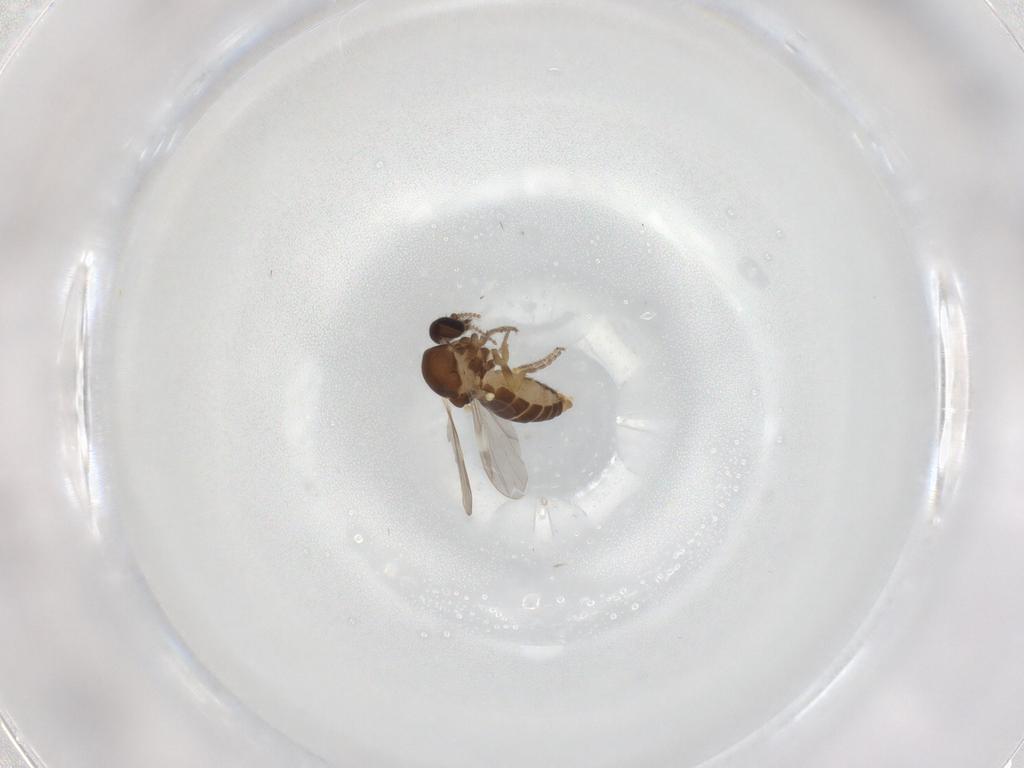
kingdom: Animalia
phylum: Arthropoda
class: Insecta
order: Diptera
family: Ceratopogonidae
